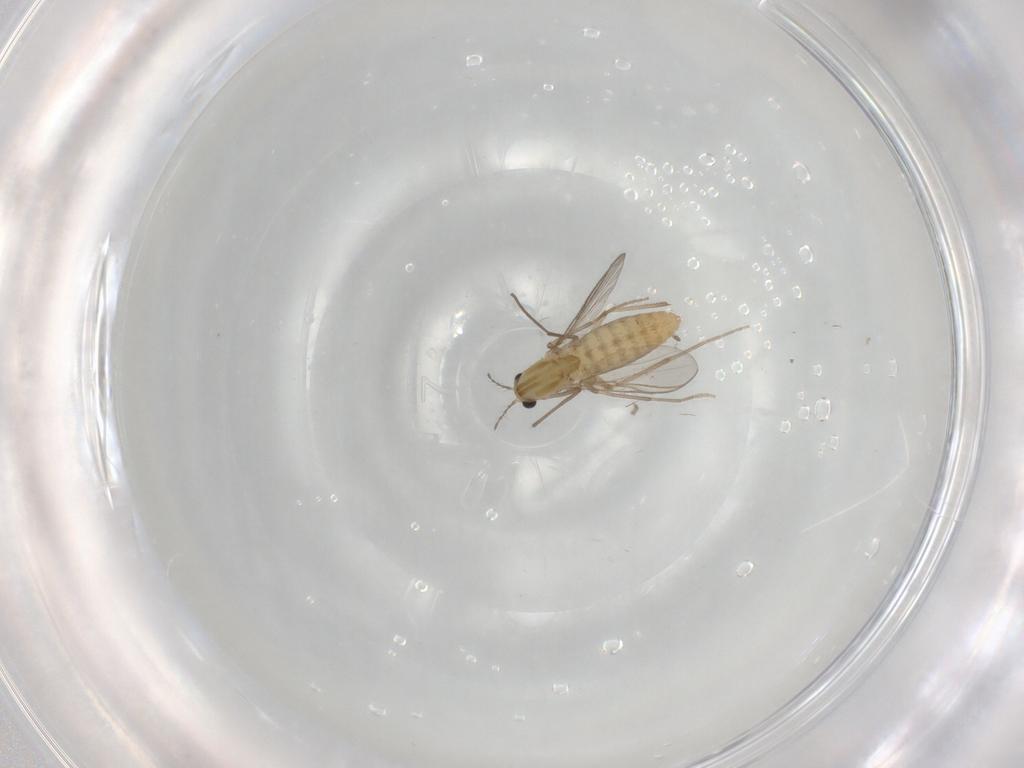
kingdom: Animalia
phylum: Arthropoda
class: Insecta
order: Diptera
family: Chironomidae
